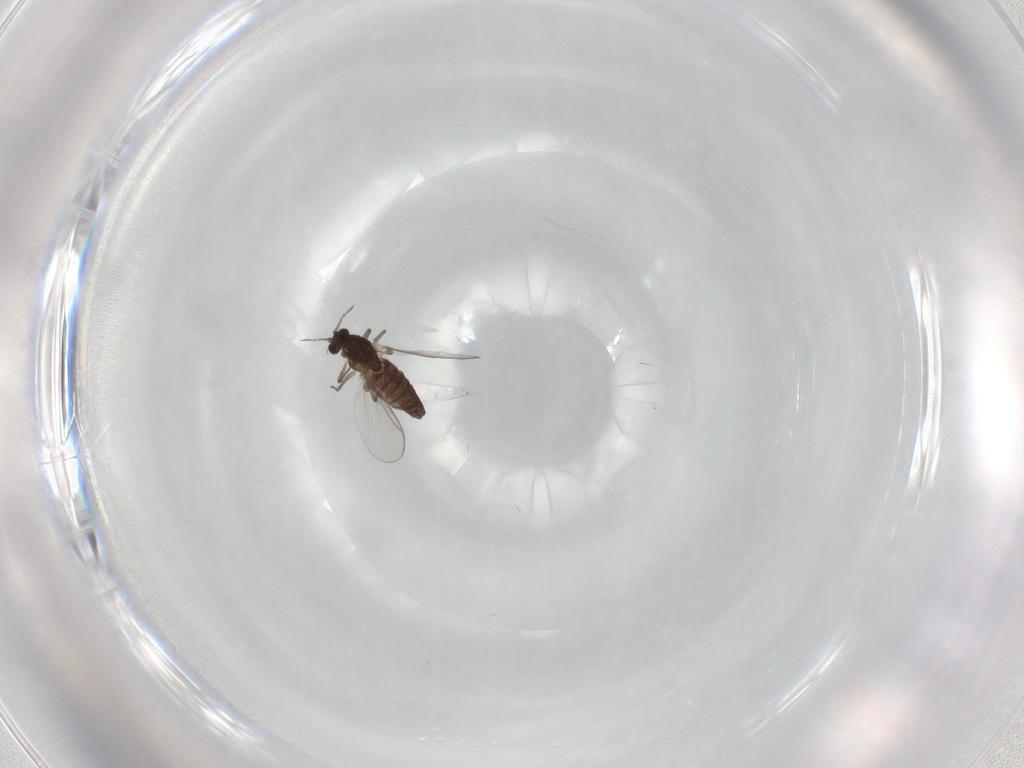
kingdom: Animalia
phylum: Arthropoda
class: Insecta
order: Diptera
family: Chironomidae
